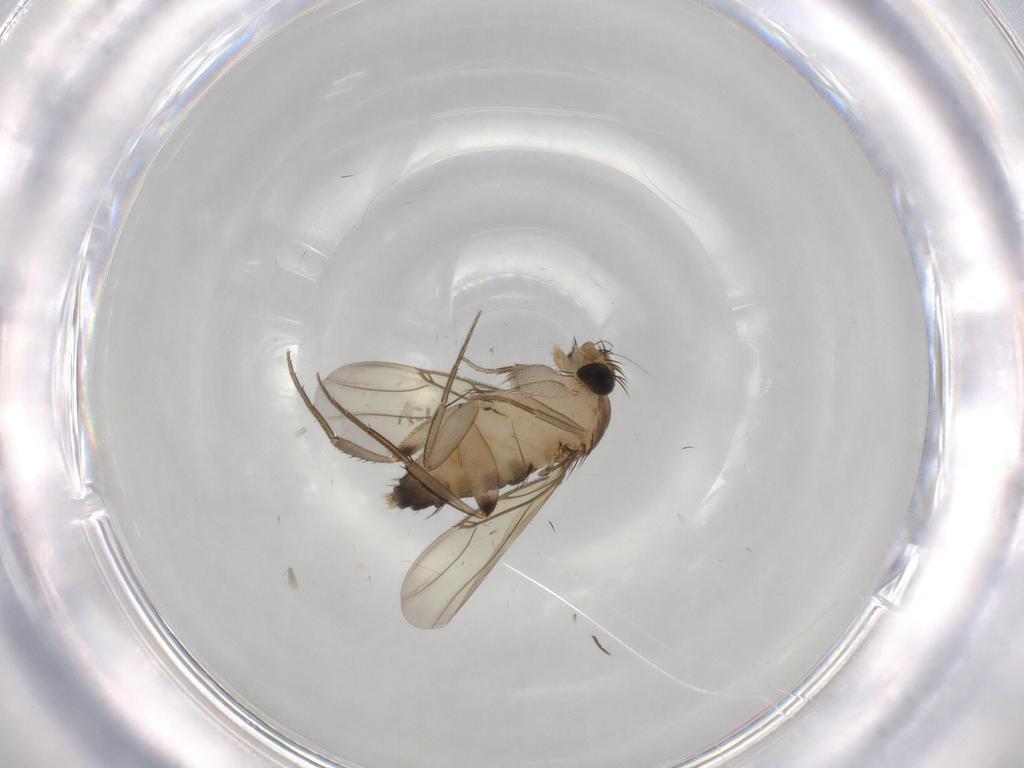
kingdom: Animalia
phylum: Arthropoda
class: Insecta
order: Diptera
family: Phoridae
